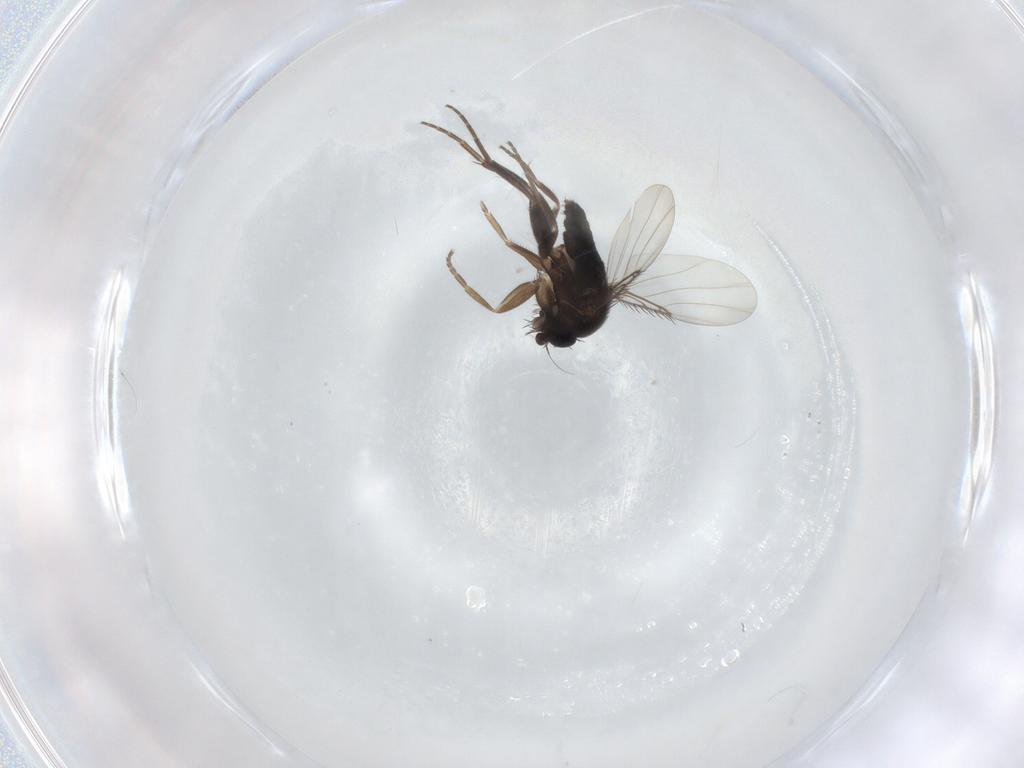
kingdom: Animalia
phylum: Arthropoda
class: Insecta
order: Diptera
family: Phoridae
